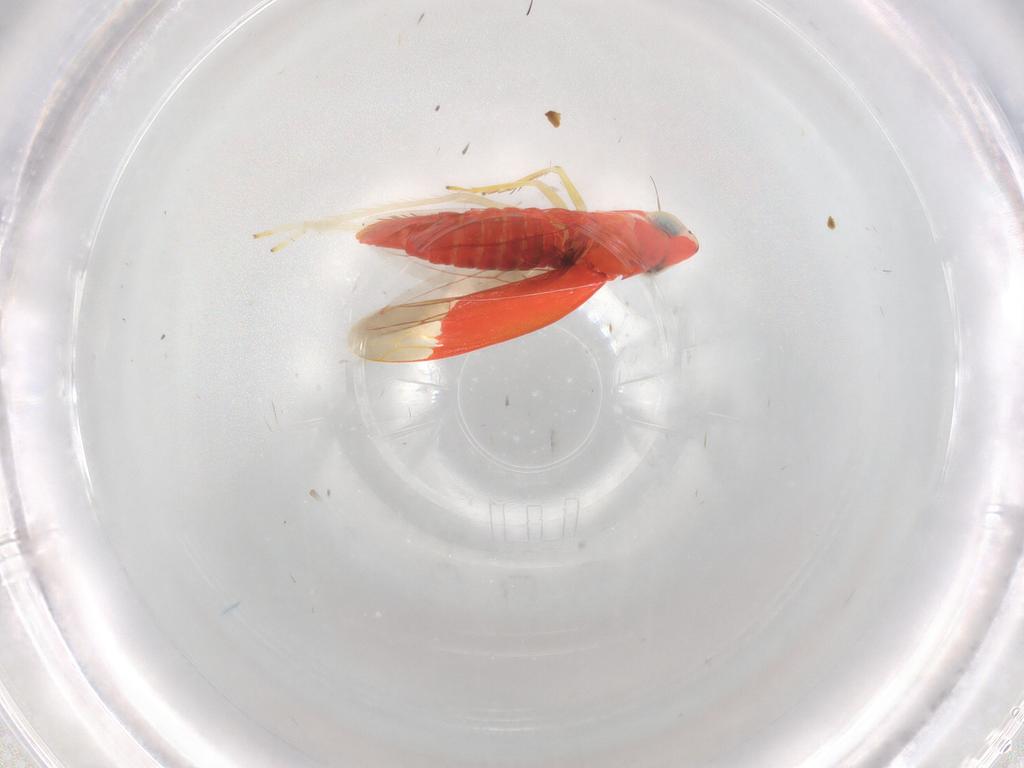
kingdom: Animalia
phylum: Arthropoda
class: Insecta
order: Hemiptera
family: Cicadellidae
